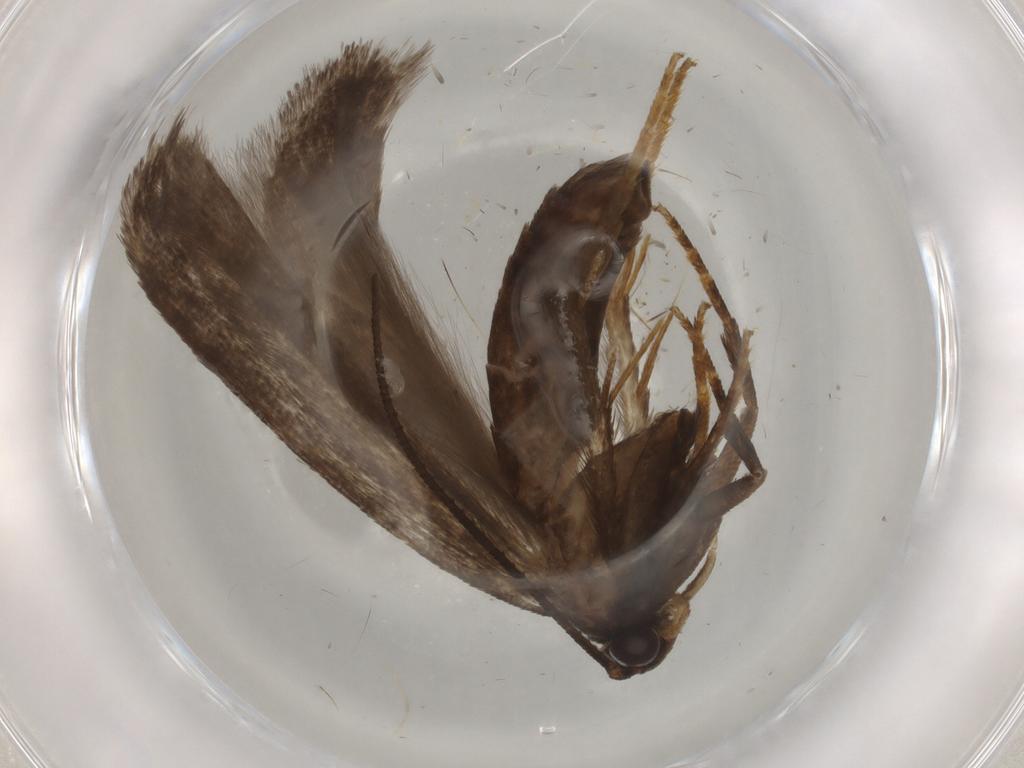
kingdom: Animalia
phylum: Arthropoda
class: Insecta
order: Lepidoptera
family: Gelechiidae
